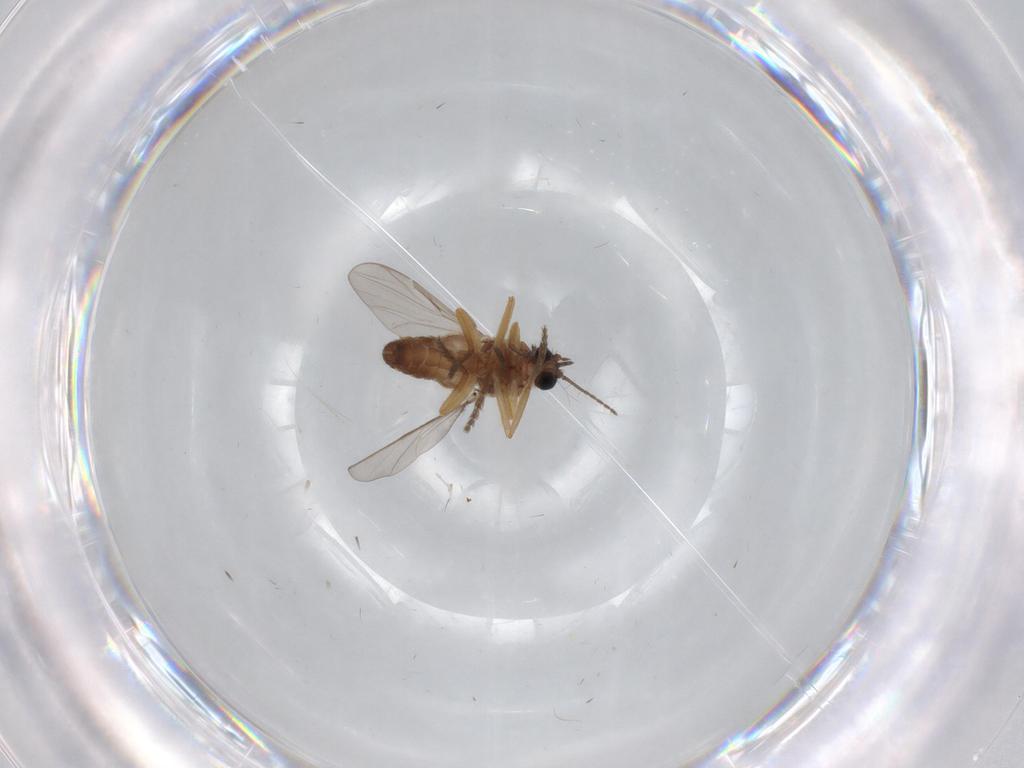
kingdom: Animalia
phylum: Arthropoda
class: Insecta
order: Diptera
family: Ceratopogonidae
